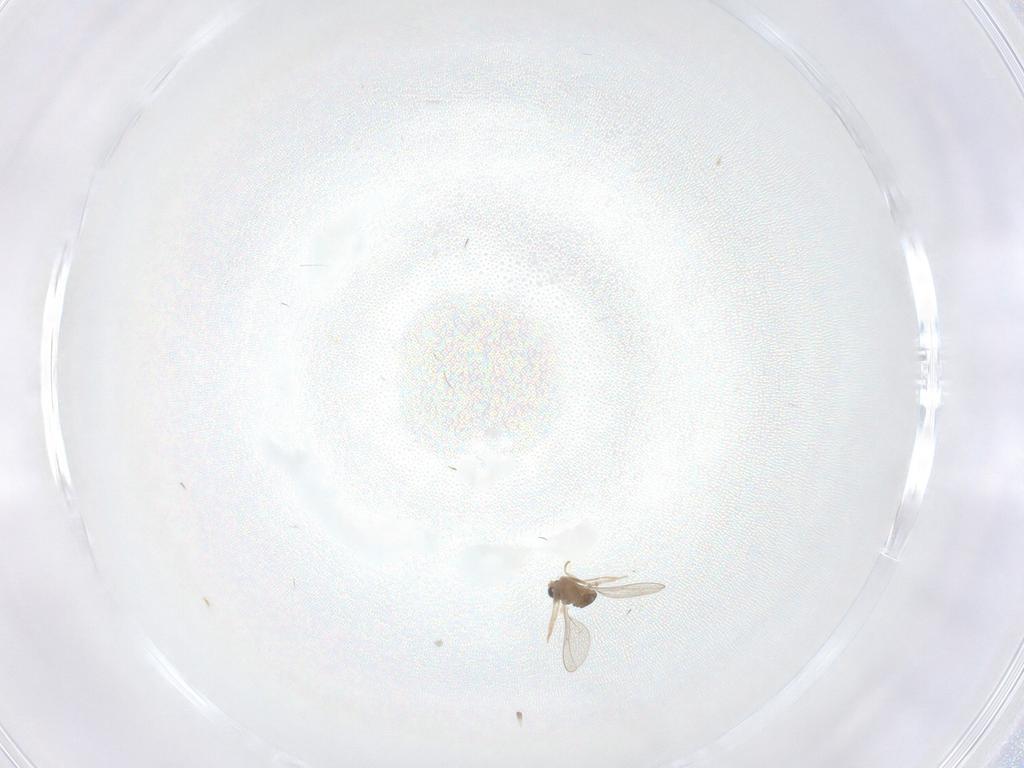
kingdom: Animalia
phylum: Arthropoda
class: Insecta
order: Diptera
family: Cecidomyiidae
